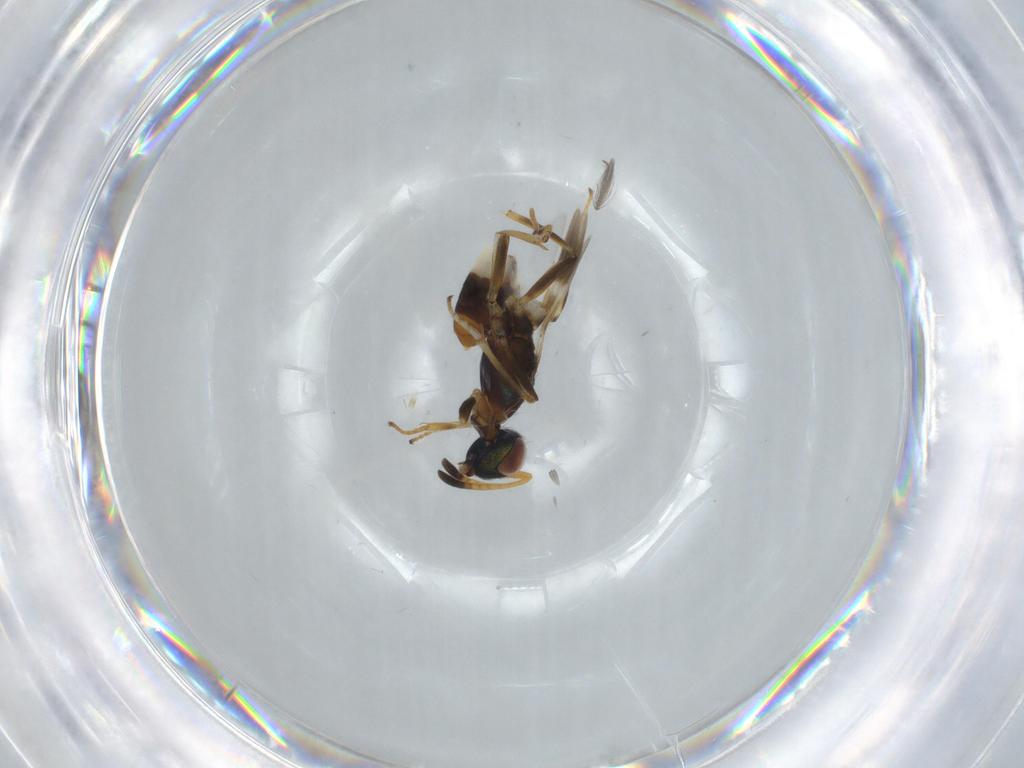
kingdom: Animalia
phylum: Arthropoda
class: Insecta
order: Hymenoptera
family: Eupelmidae
